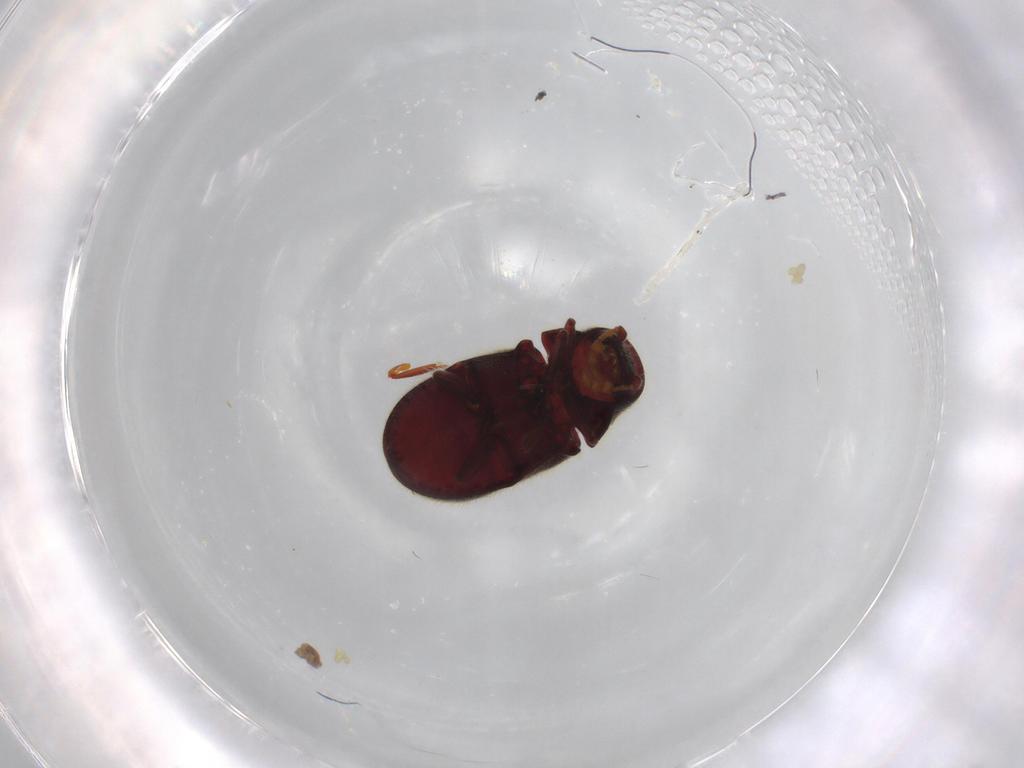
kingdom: Animalia
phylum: Arthropoda
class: Insecta
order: Coleoptera
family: Ptinidae
